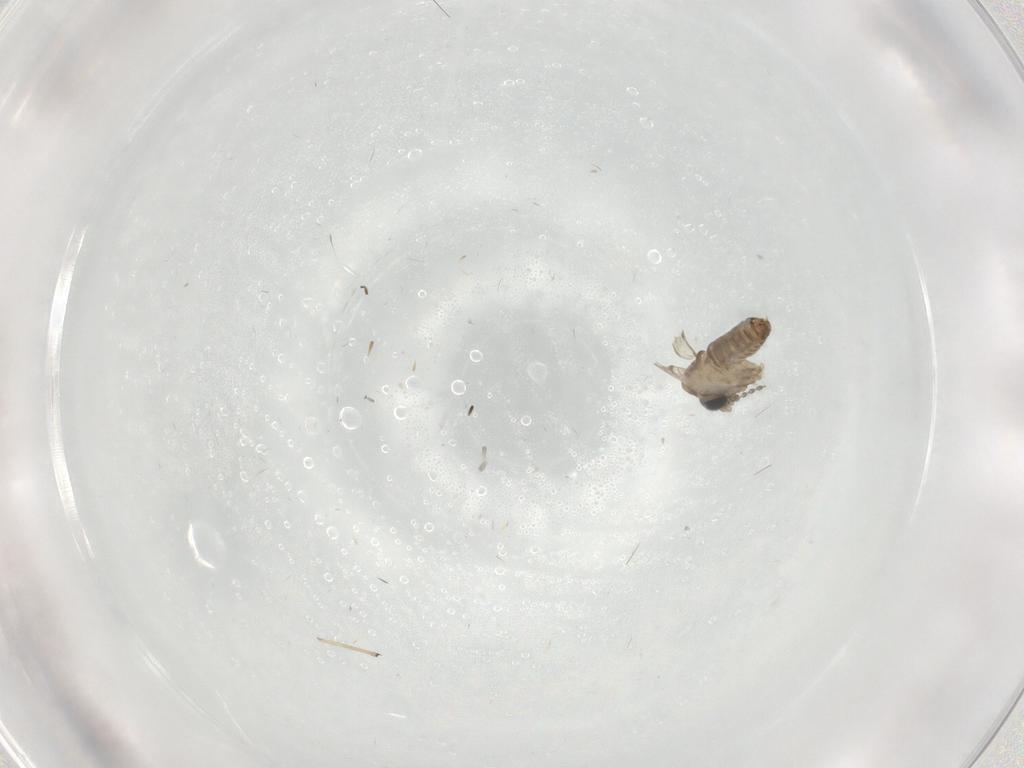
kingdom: Animalia
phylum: Arthropoda
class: Insecta
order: Diptera
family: Chironomidae
